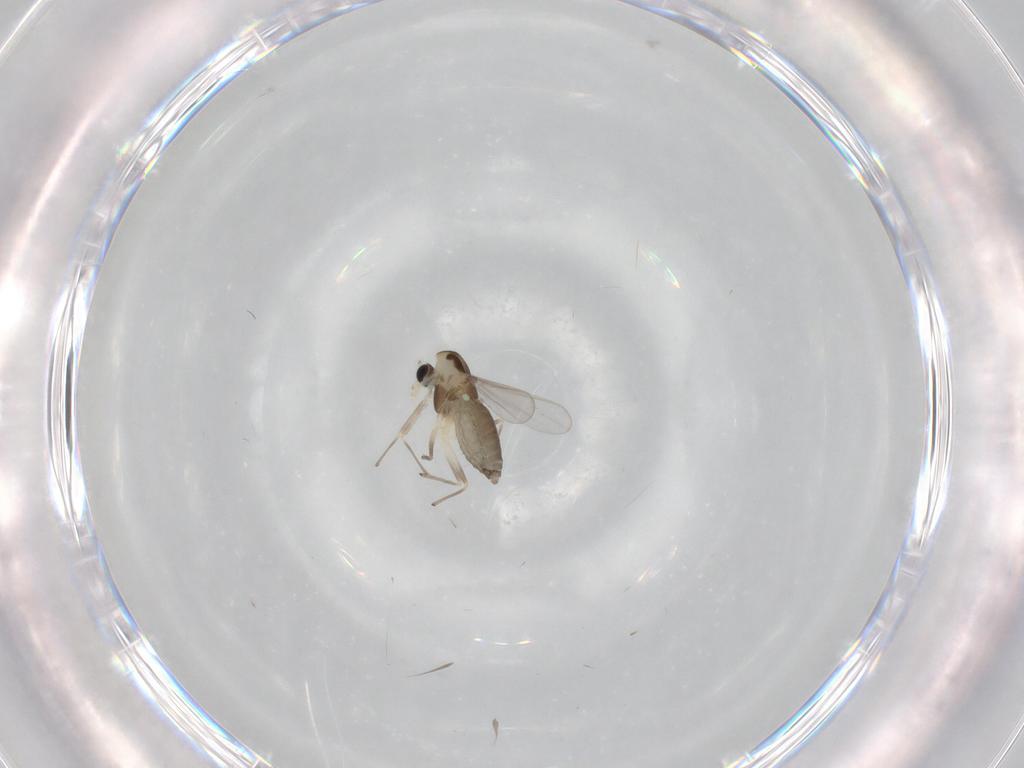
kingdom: Animalia
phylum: Arthropoda
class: Insecta
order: Diptera
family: Chironomidae
